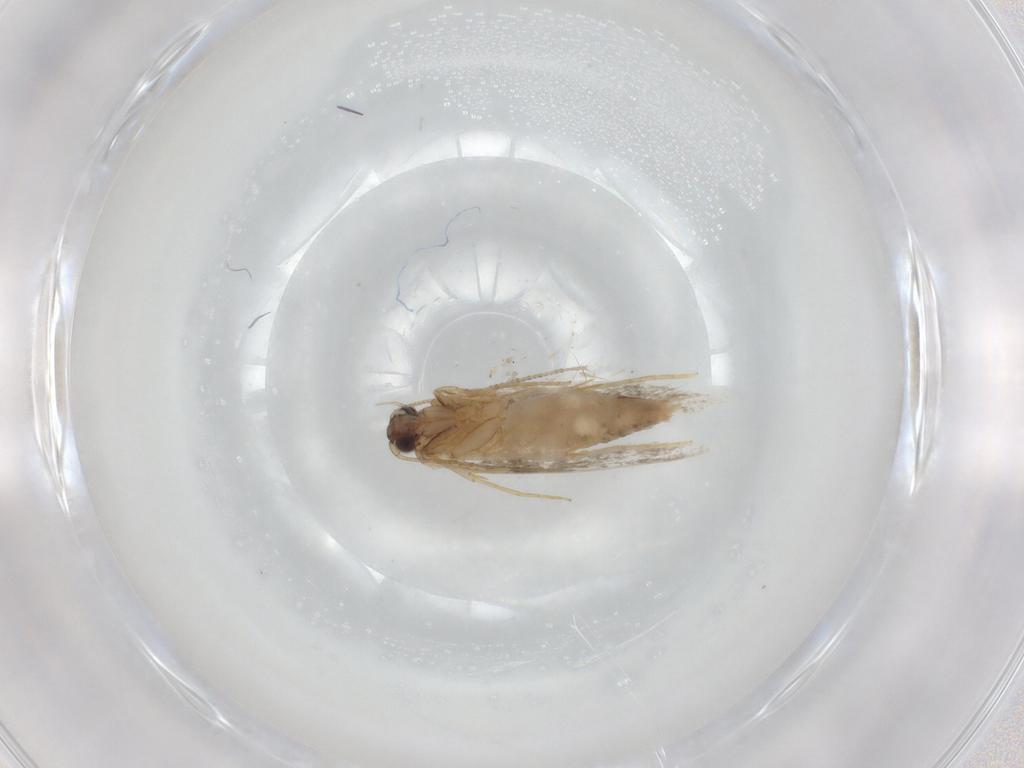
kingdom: Animalia
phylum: Arthropoda
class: Insecta
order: Lepidoptera
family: Tineidae
